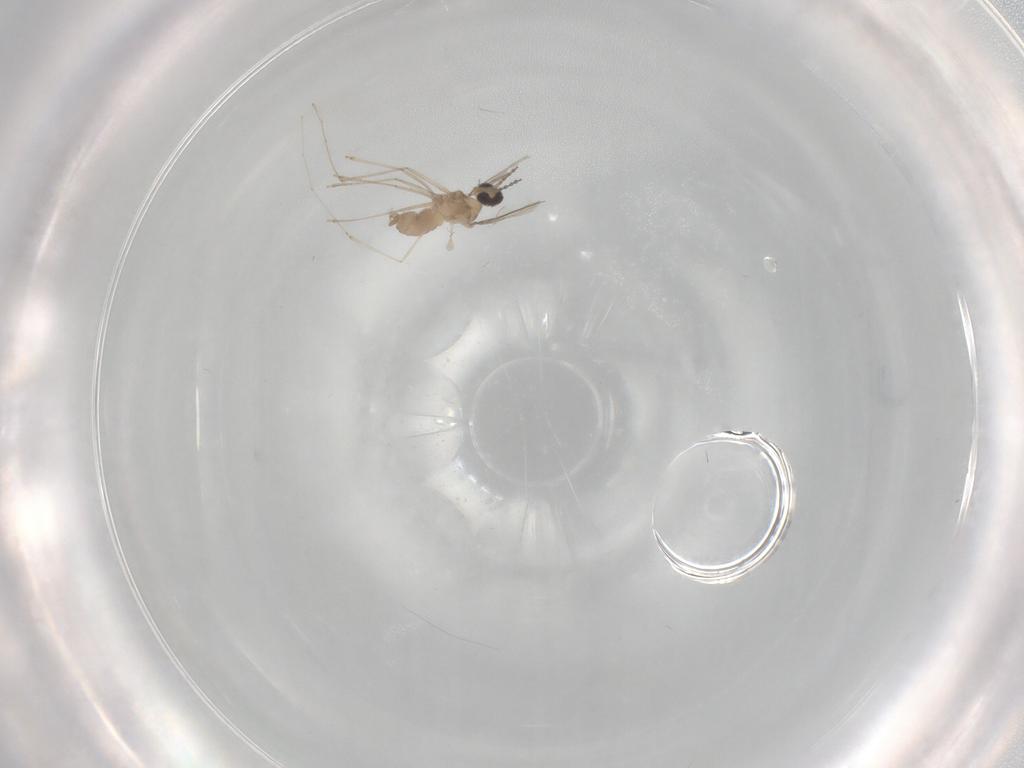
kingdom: Animalia
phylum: Arthropoda
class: Insecta
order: Diptera
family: Cecidomyiidae
